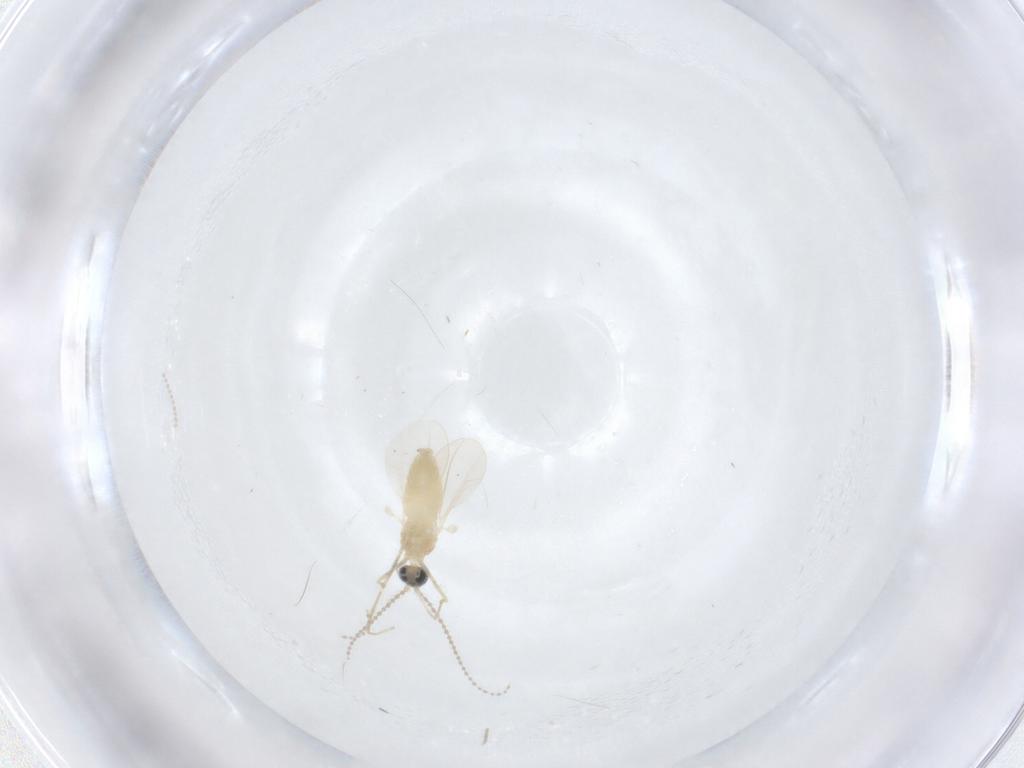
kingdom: Animalia
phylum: Arthropoda
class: Insecta
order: Diptera
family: Cecidomyiidae
